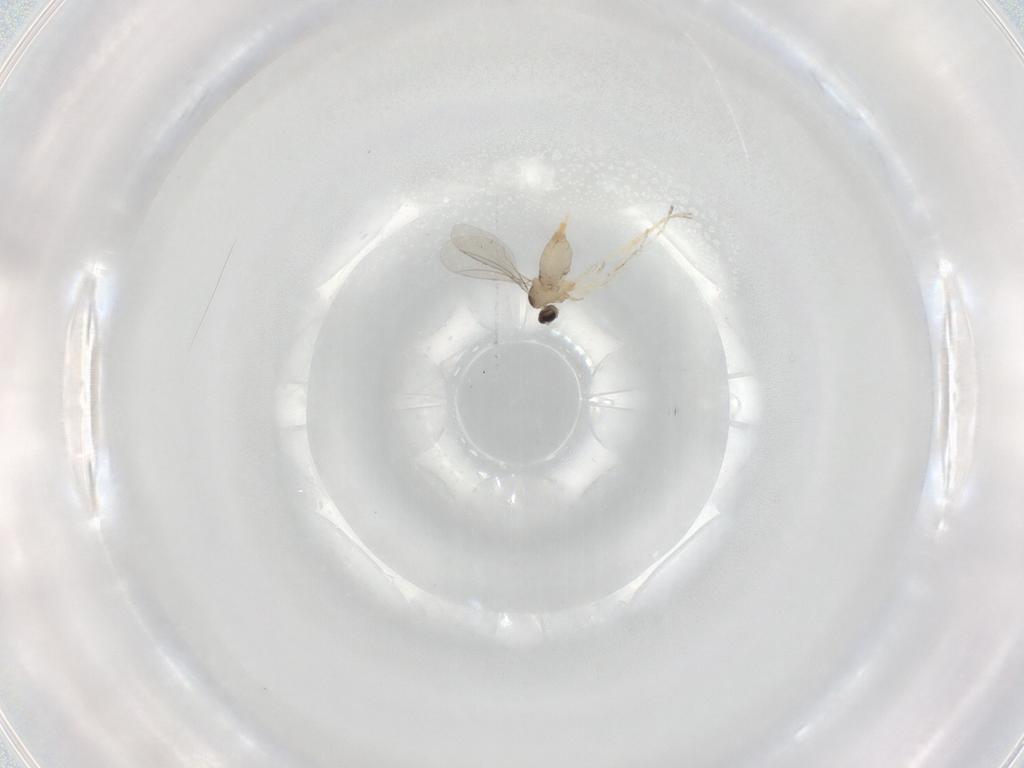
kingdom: Animalia
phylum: Arthropoda
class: Insecta
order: Diptera
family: Cecidomyiidae
